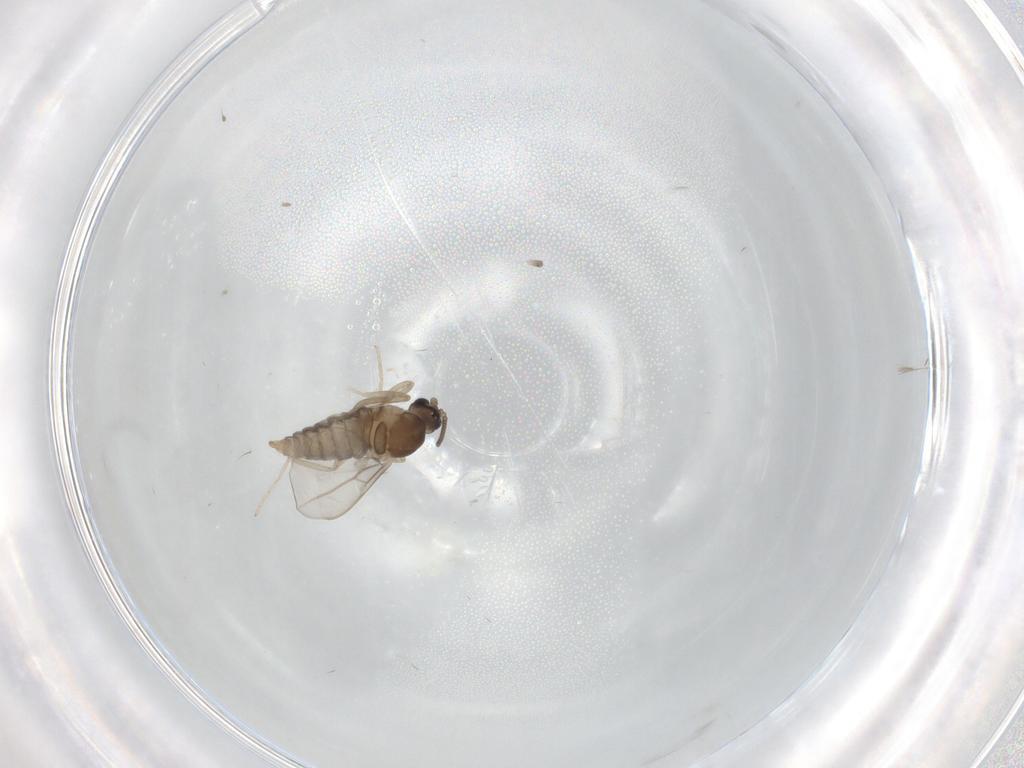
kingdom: Animalia
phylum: Arthropoda
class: Insecta
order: Diptera
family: Cecidomyiidae
